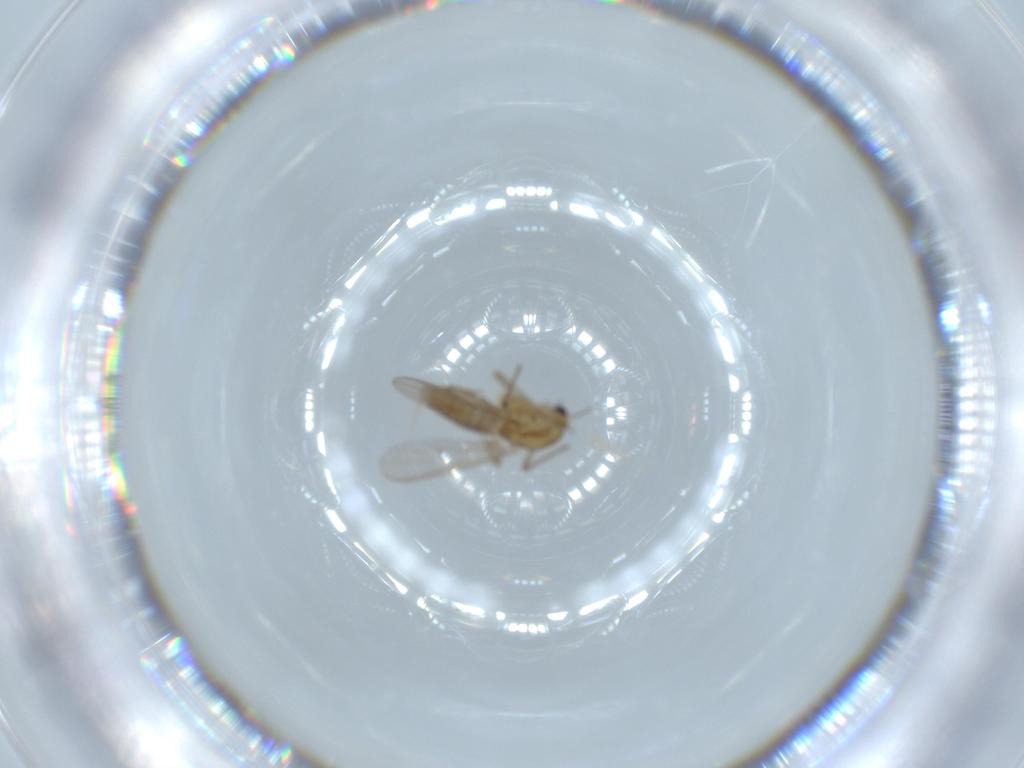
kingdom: Animalia
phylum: Arthropoda
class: Insecta
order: Diptera
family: Chironomidae
